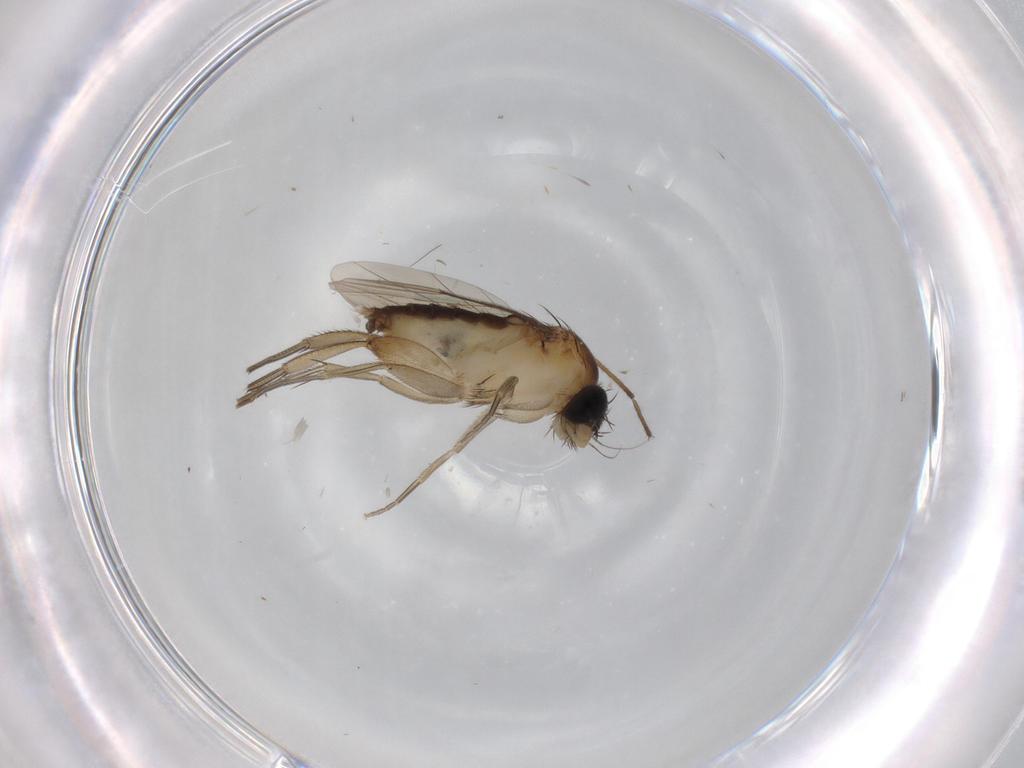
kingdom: Animalia
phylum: Arthropoda
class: Insecta
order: Diptera
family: Phoridae
